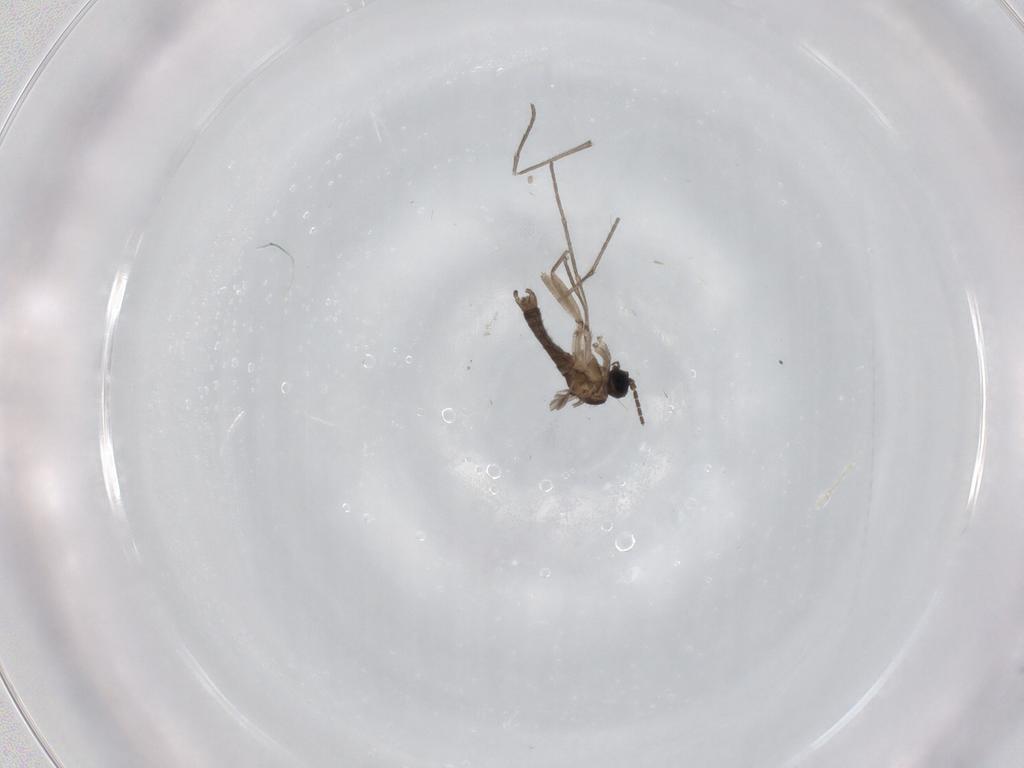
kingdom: Animalia
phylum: Arthropoda
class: Insecta
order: Diptera
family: Sciaridae
